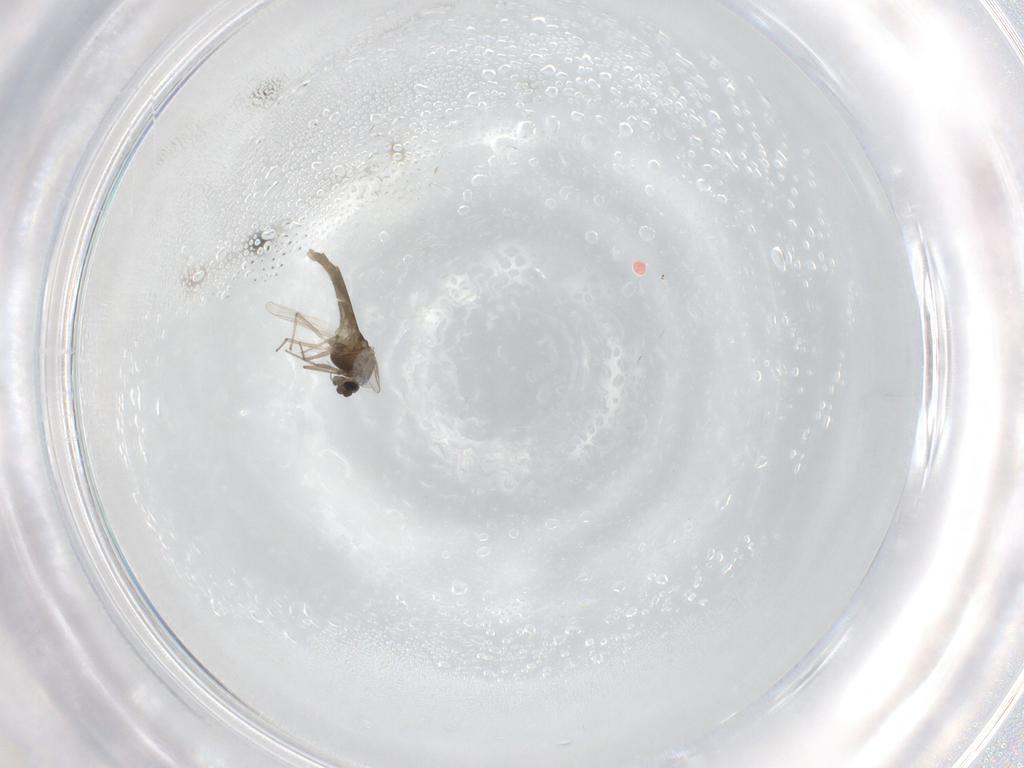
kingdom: Animalia
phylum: Arthropoda
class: Insecta
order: Diptera
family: Chironomidae
